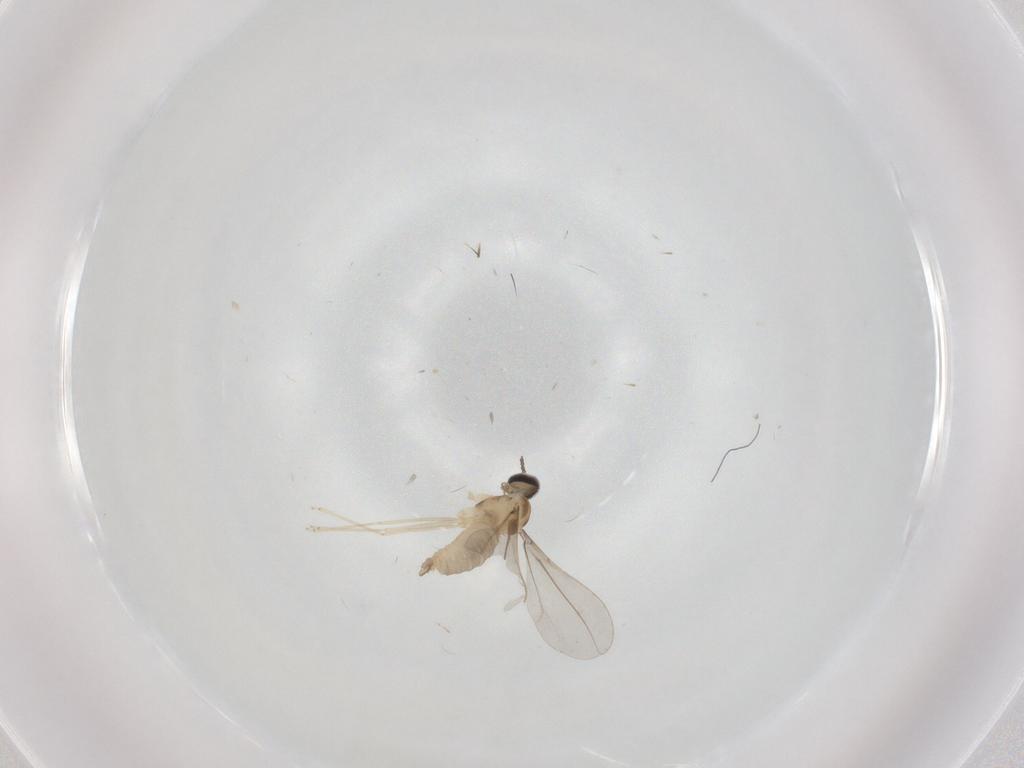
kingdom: Animalia
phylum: Arthropoda
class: Insecta
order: Diptera
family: Cecidomyiidae
